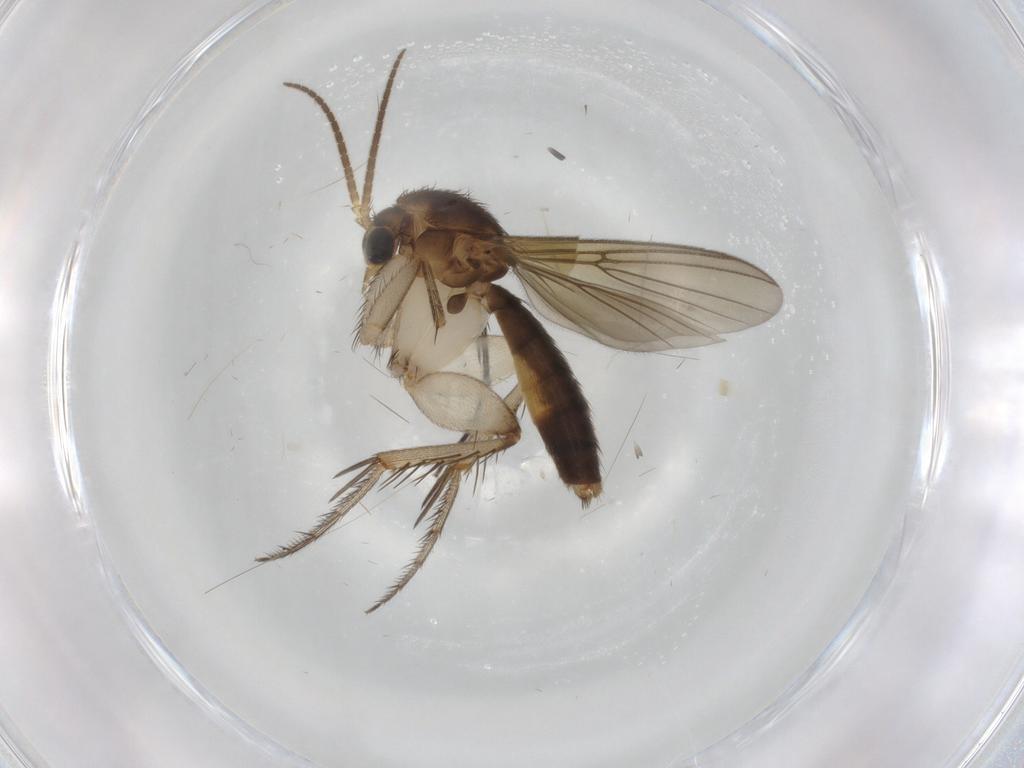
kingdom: Animalia
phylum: Arthropoda
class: Insecta
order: Diptera
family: Mycetophilidae
